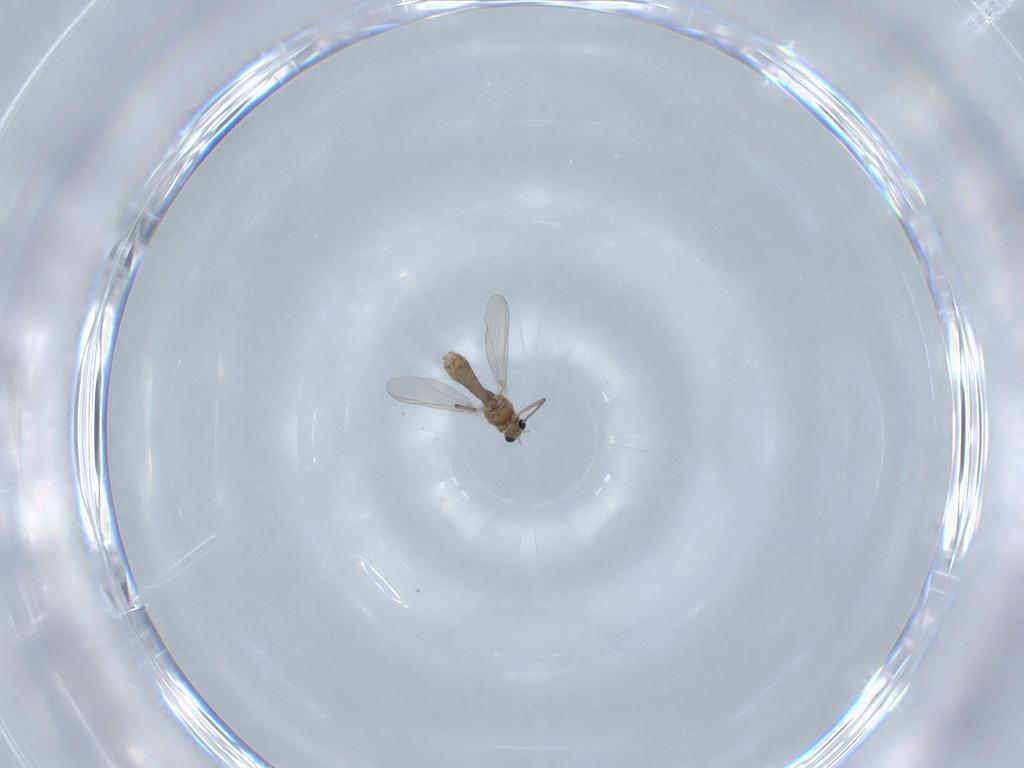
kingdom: Animalia
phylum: Arthropoda
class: Insecta
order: Diptera
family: Chironomidae
